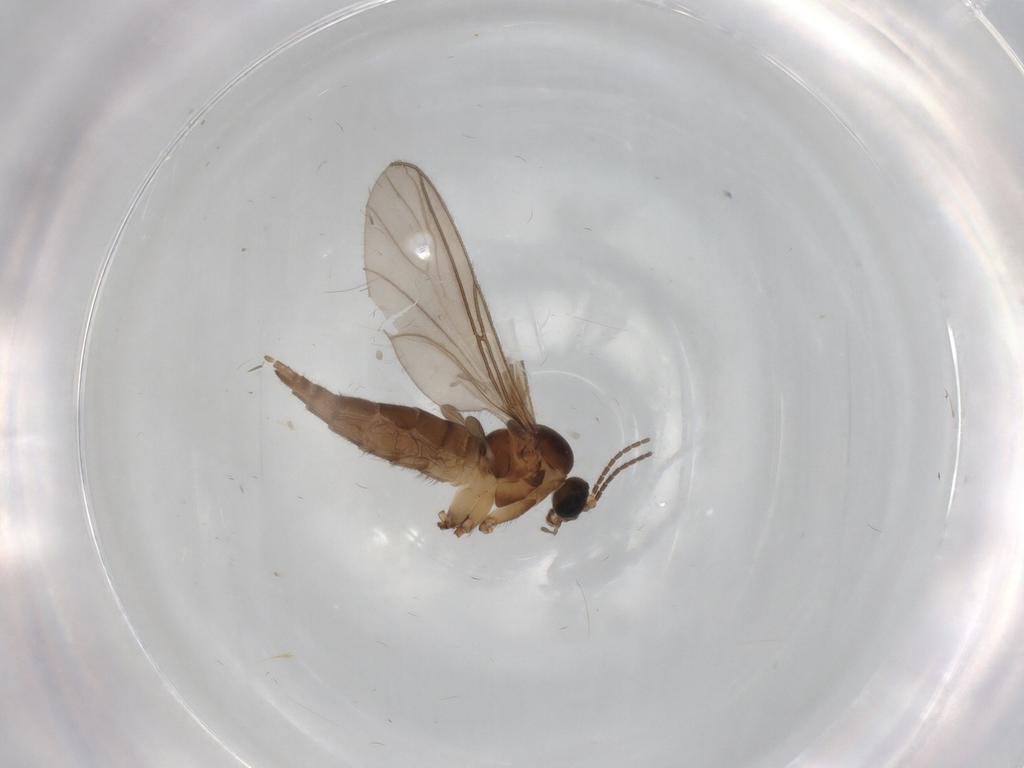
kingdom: Animalia
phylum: Arthropoda
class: Insecta
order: Diptera
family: Sciaridae
